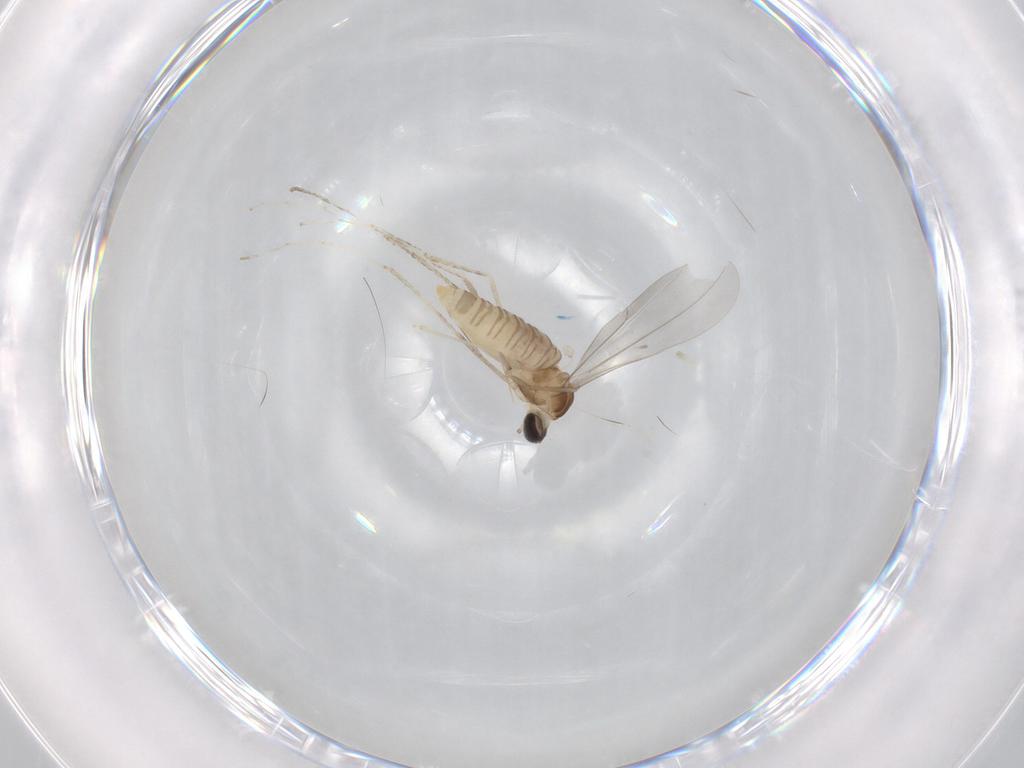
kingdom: Animalia
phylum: Arthropoda
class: Insecta
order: Diptera
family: Cecidomyiidae
